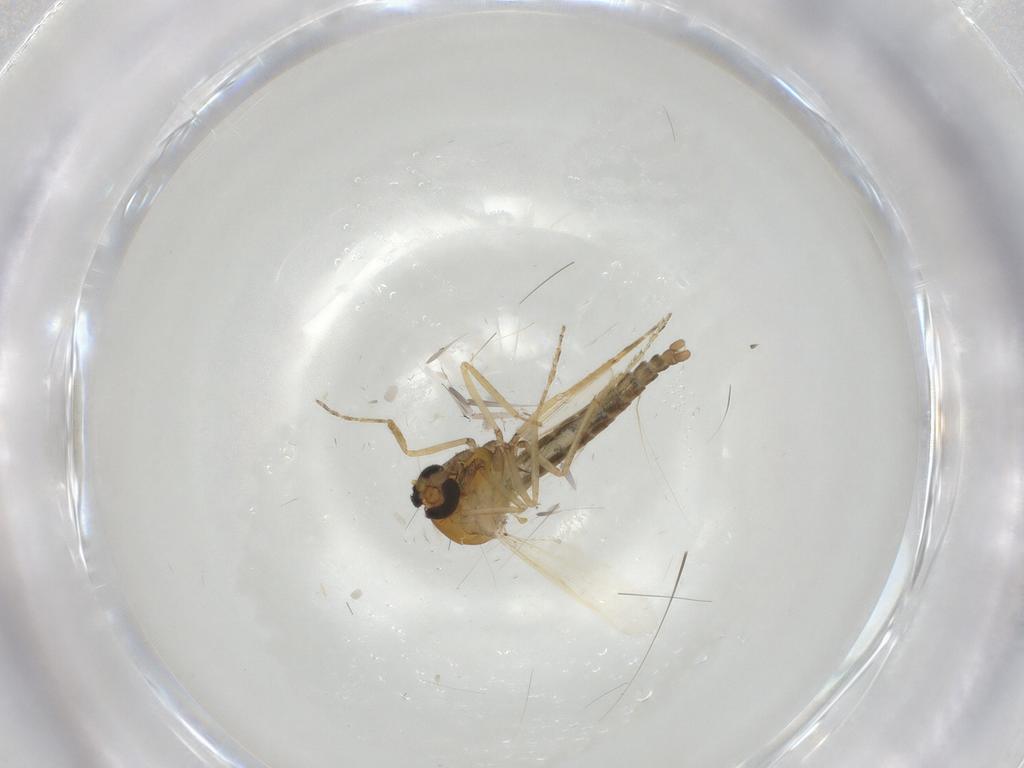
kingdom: Animalia
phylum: Arthropoda
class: Insecta
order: Diptera
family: Ceratopogonidae
